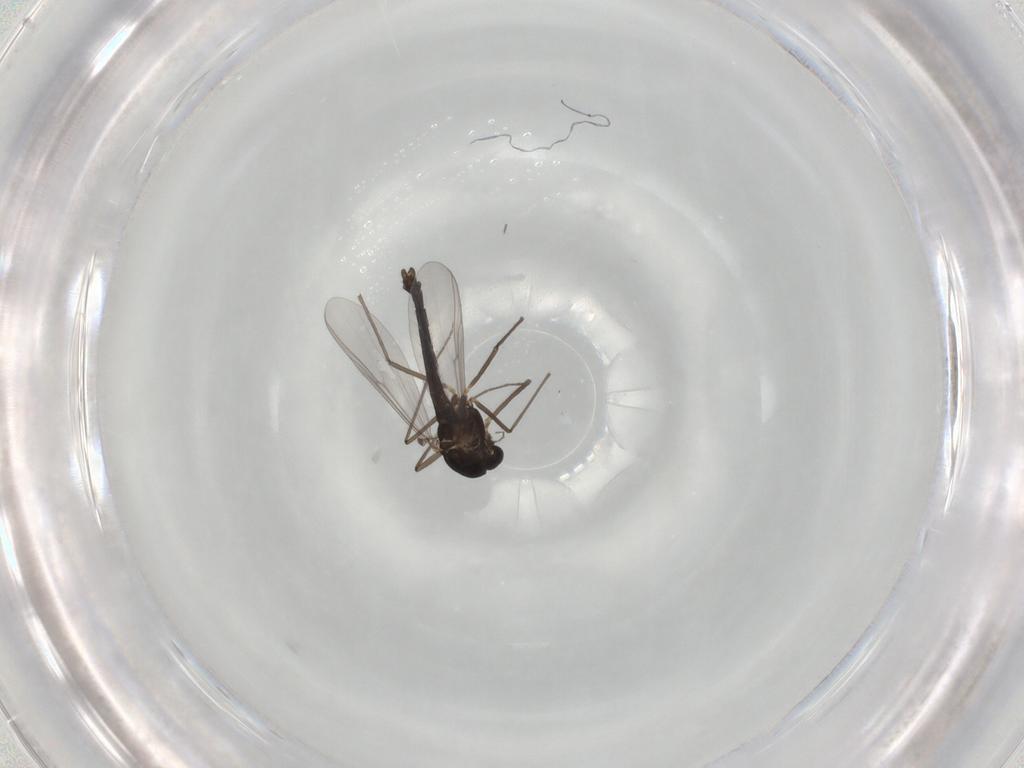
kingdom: Animalia
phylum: Arthropoda
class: Insecta
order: Diptera
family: Chironomidae
